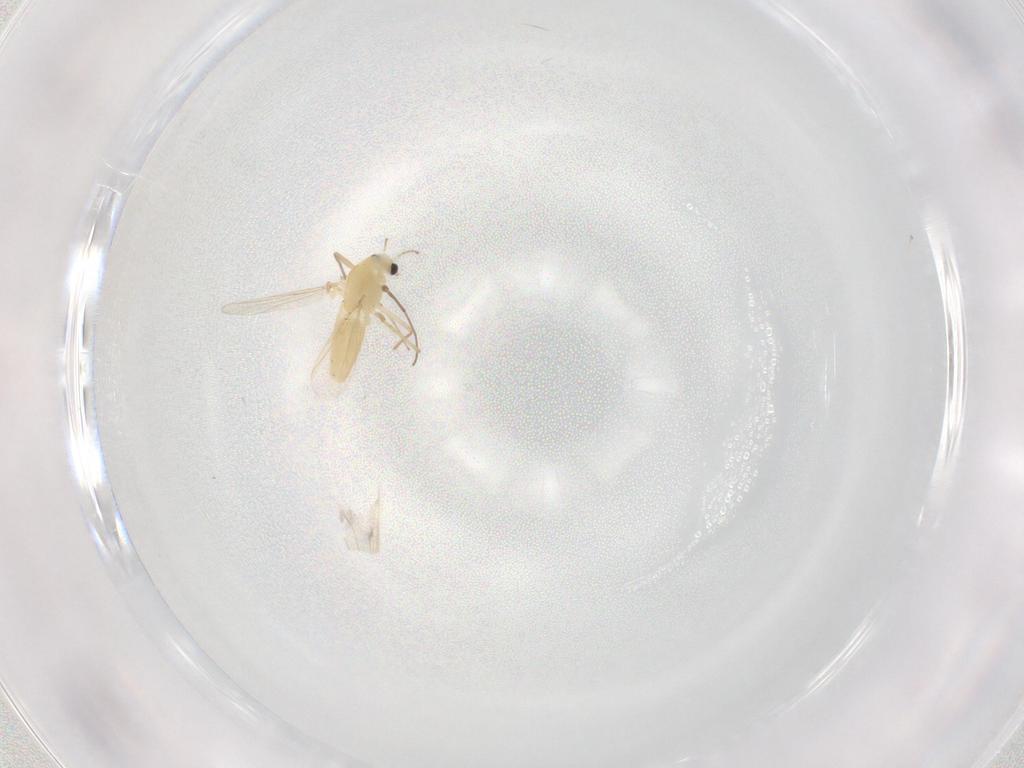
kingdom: Animalia
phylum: Arthropoda
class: Insecta
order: Diptera
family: Chironomidae
